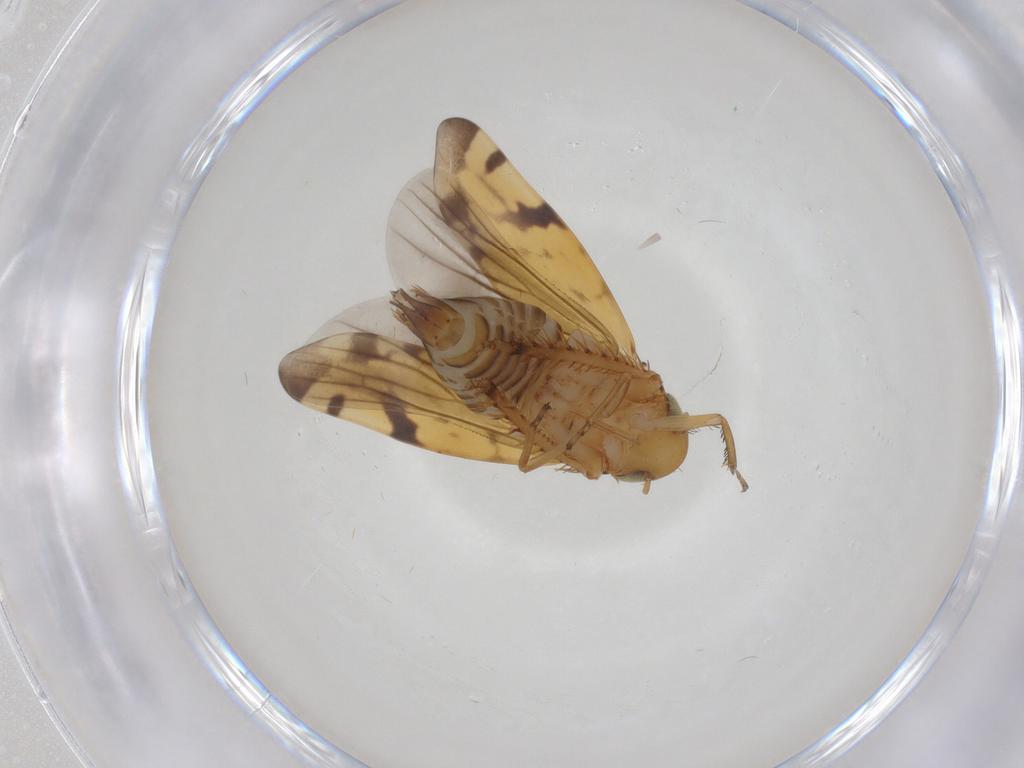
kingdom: Animalia
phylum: Arthropoda
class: Insecta
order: Hemiptera
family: Cicadellidae
